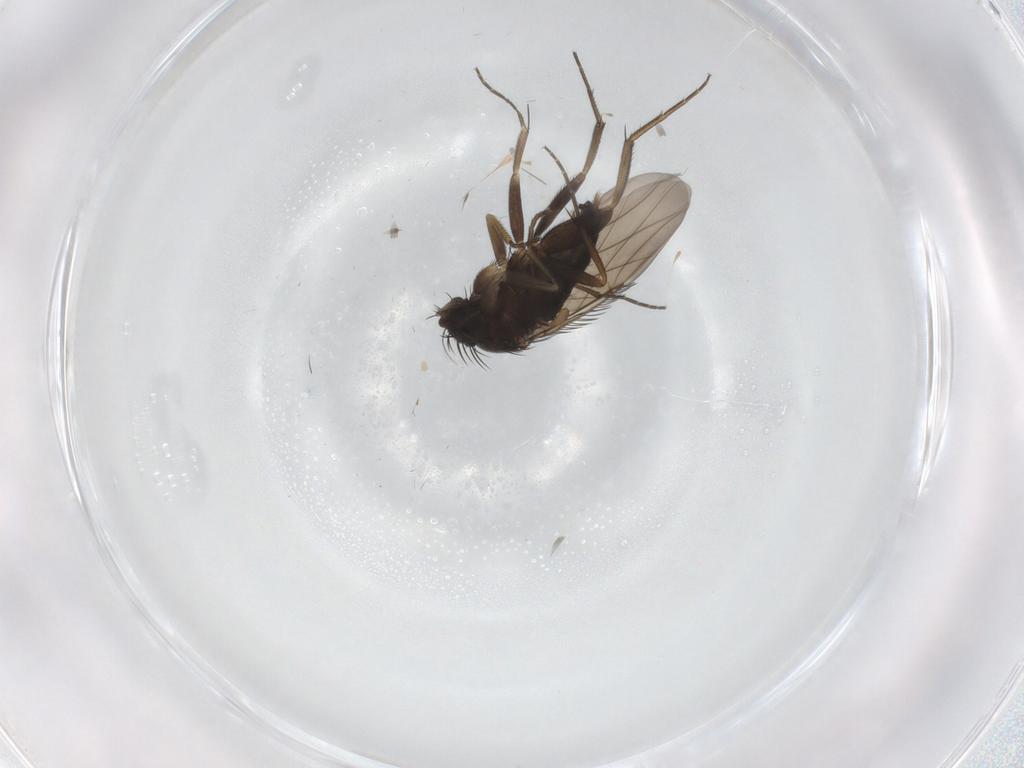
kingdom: Animalia
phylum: Arthropoda
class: Insecta
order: Diptera
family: Phoridae
